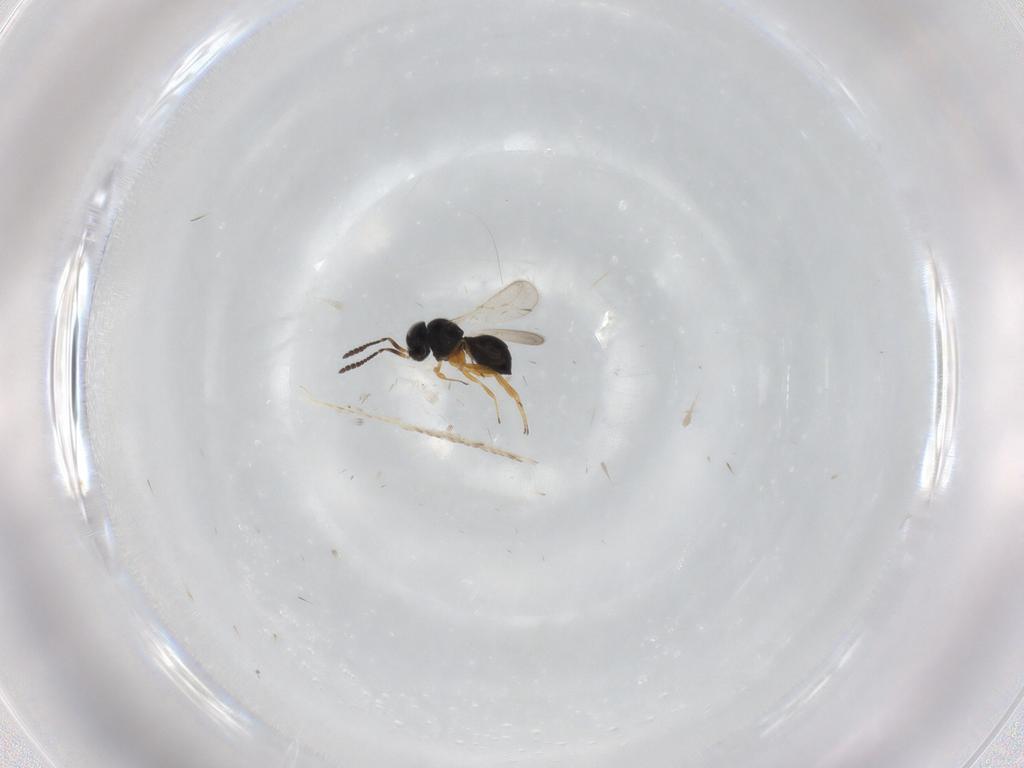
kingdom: Animalia
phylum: Arthropoda
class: Insecta
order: Hymenoptera
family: Scelionidae
